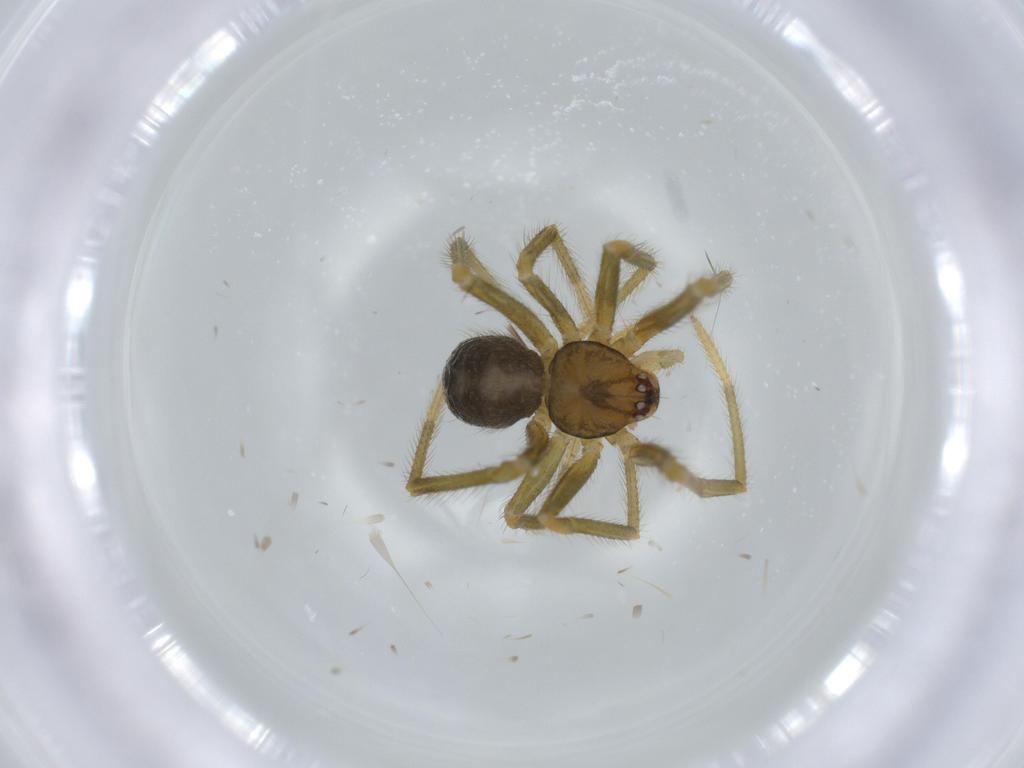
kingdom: Animalia
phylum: Arthropoda
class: Arachnida
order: Araneae
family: Nesticidae
